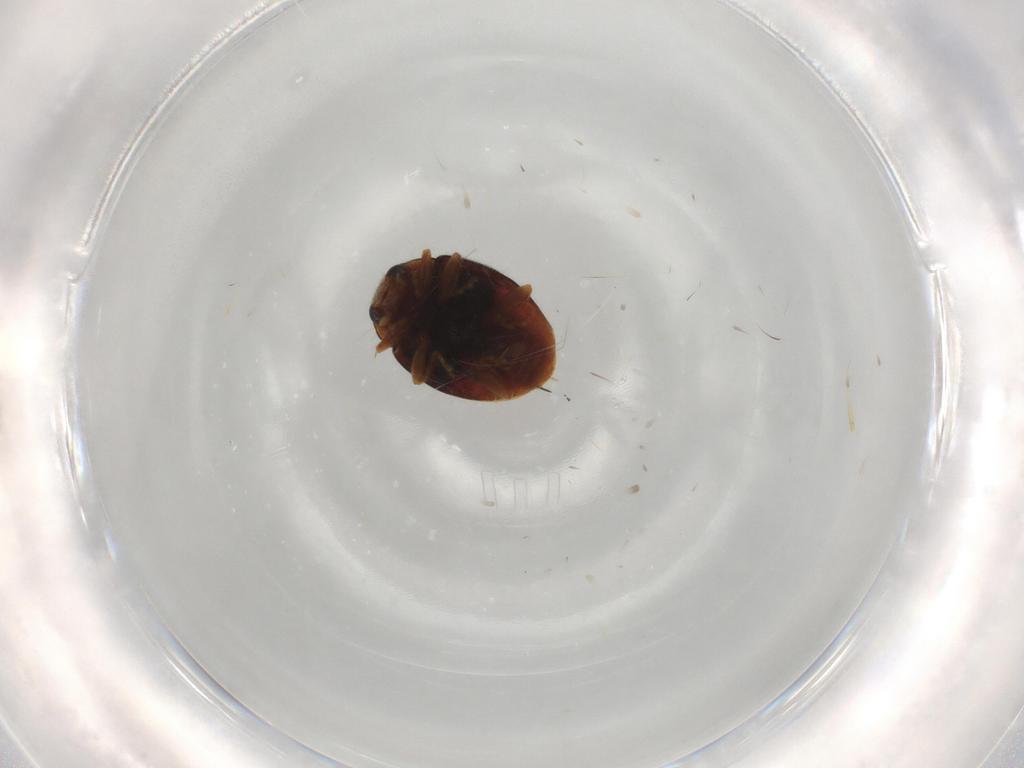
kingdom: Animalia
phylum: Arthropoda
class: Insecta
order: Coleoptera
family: Coccinellidae
